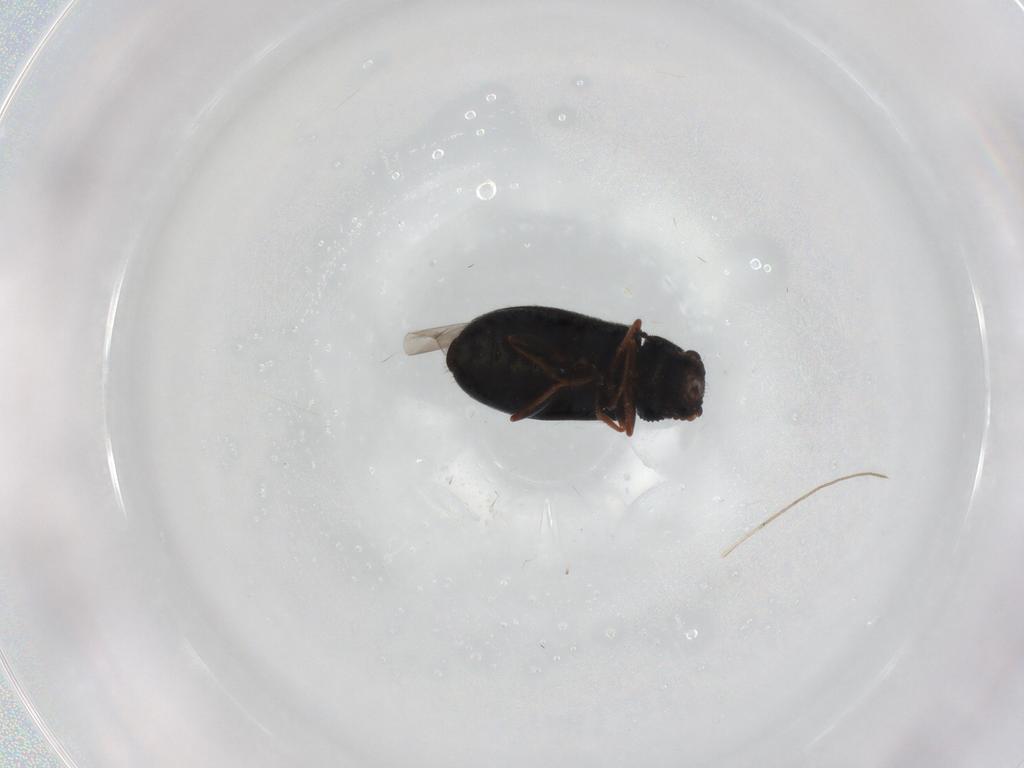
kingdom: Animalia
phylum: Arthropoda
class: Insecta
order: Coleoptera
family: Melyridae
